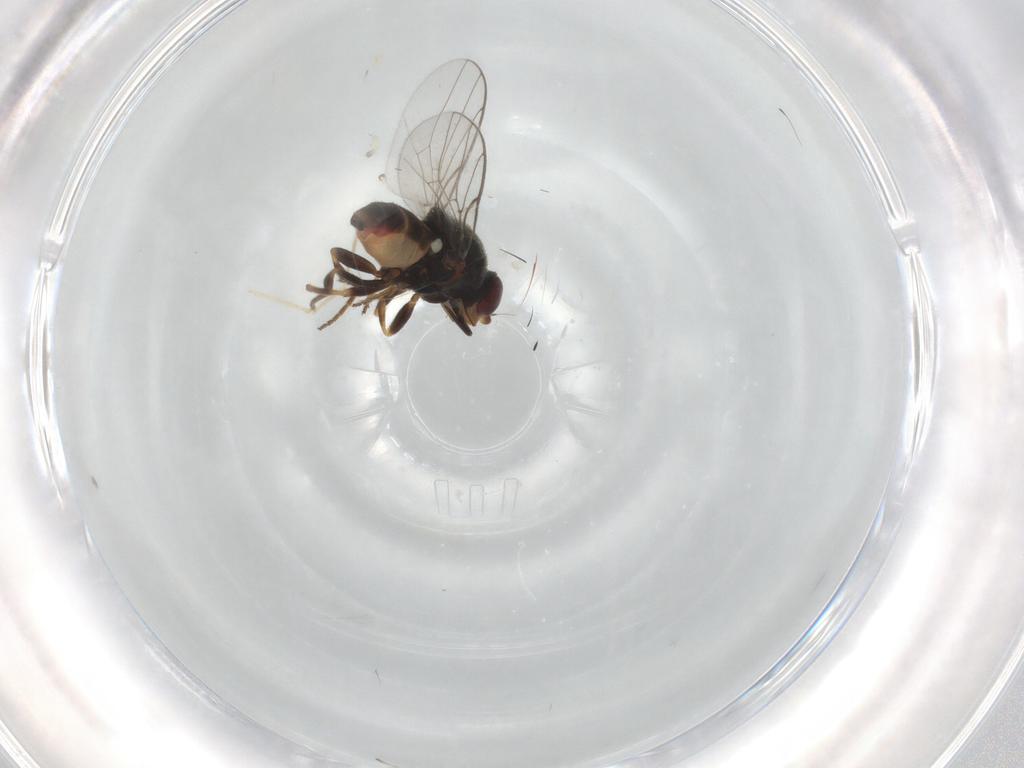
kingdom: Animalia
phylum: Arthropoda
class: Insecta
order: Diptera
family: Chloropidae
